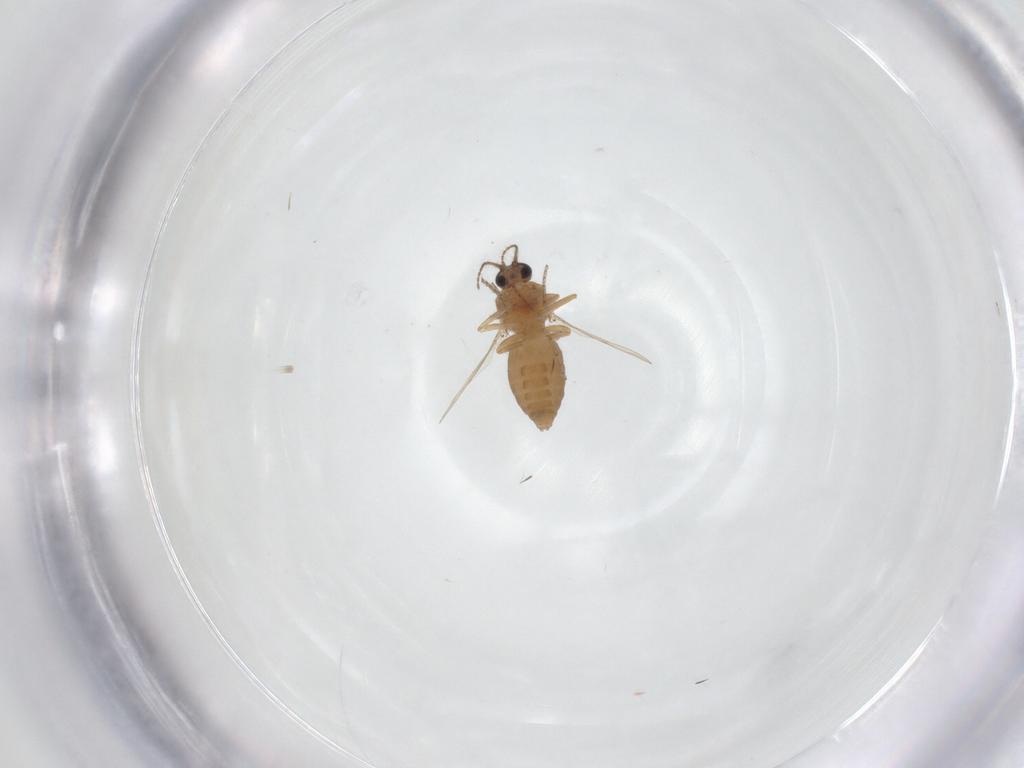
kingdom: Animalia
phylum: Arthropoda
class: Insecta
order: Diptera
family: Ceratopogonidae
